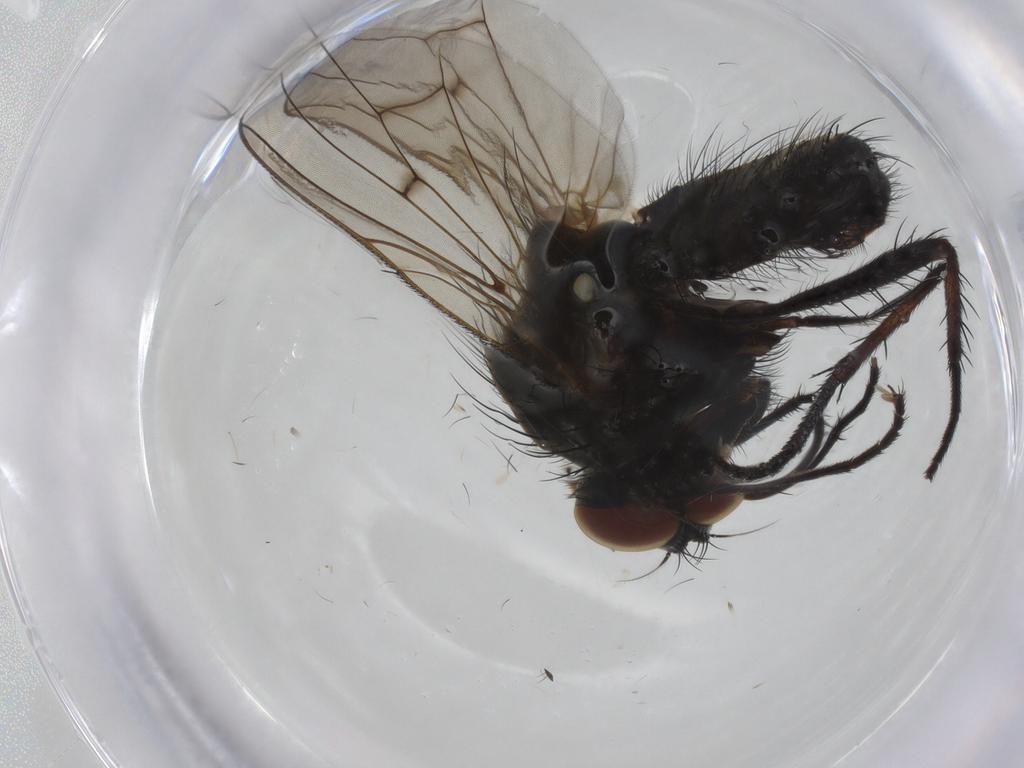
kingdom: Animalia
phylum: Arthropoda
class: Insecta
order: Diptera
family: Anthomyiidae
